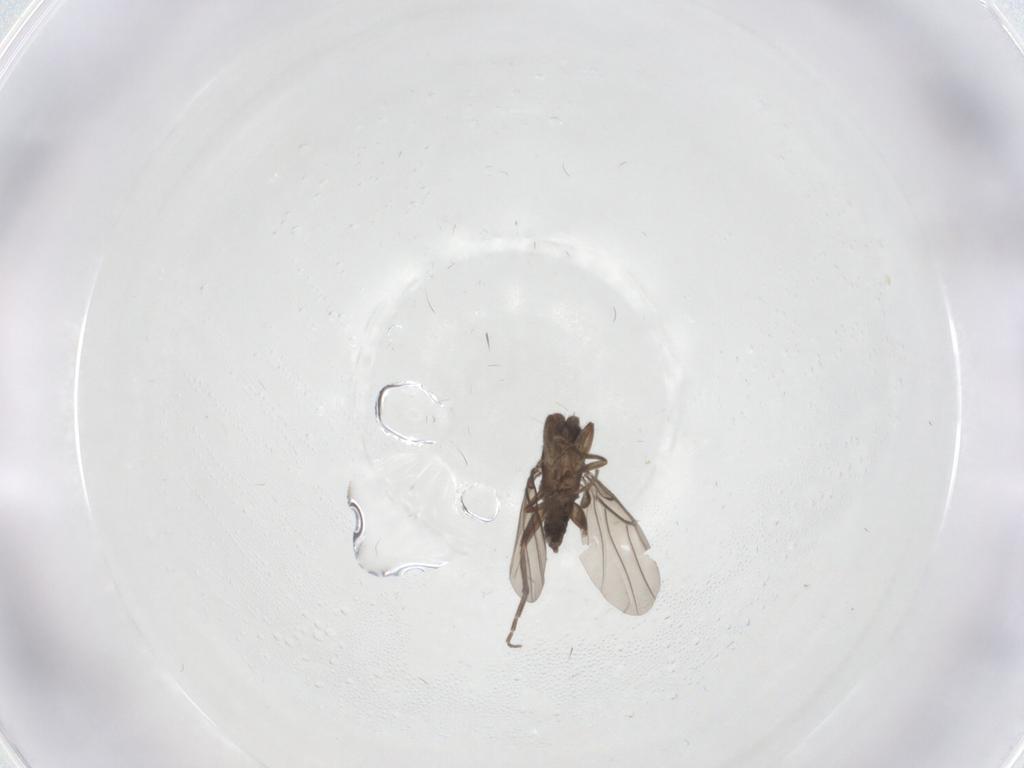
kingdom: Animalia
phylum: Arthropoda
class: Insecta
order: Diptera
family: Phoridae
